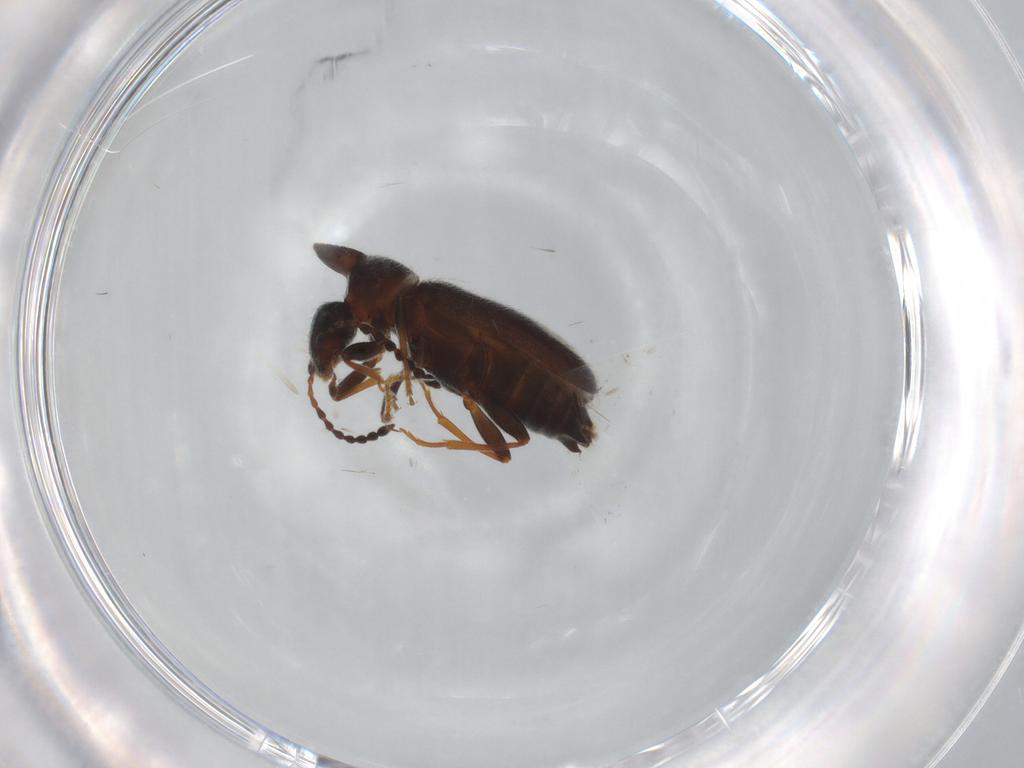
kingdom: Animalia
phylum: Arthropoda
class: Insecta
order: Coleoptera
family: Anthicidae
